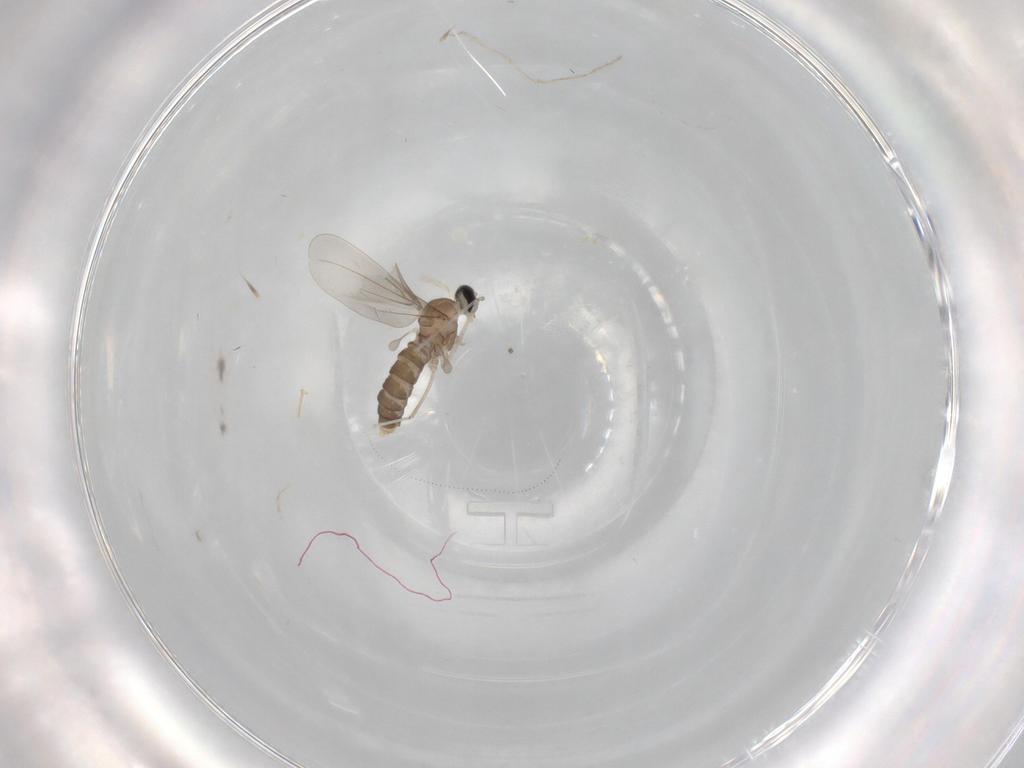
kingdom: Animalia
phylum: Arthropoda
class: Insecta
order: Diptera
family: Cecidomyiidae
